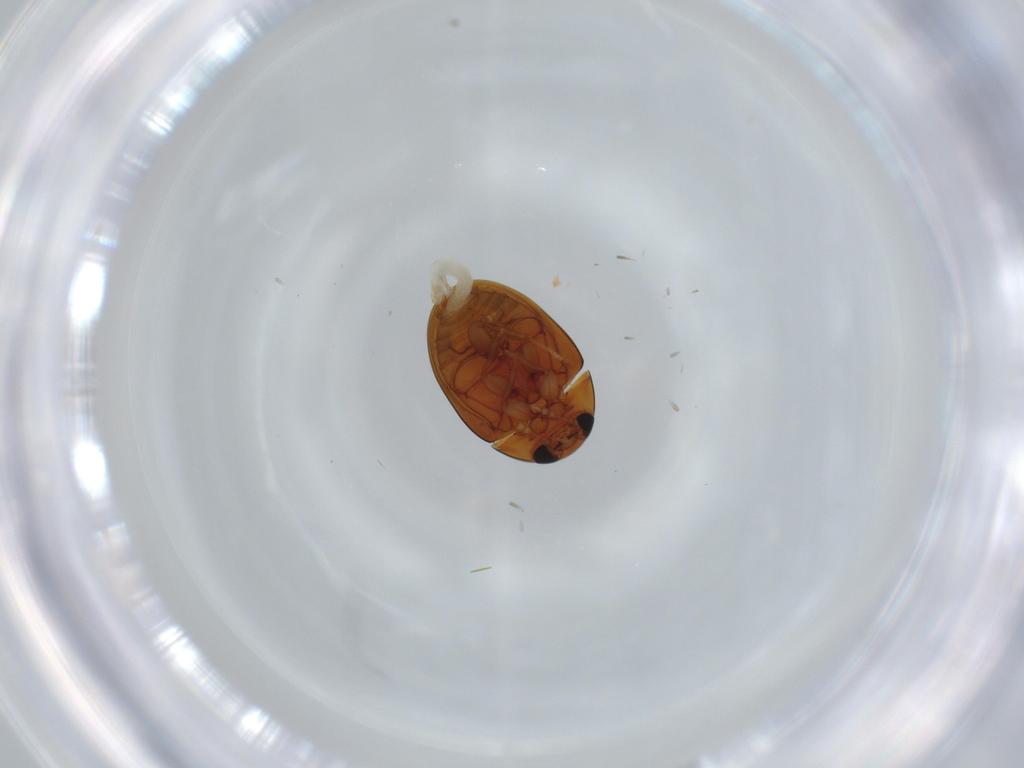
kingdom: Animalia
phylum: Arthropoda
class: Insecta
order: Coleoptera
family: Phalacridae
